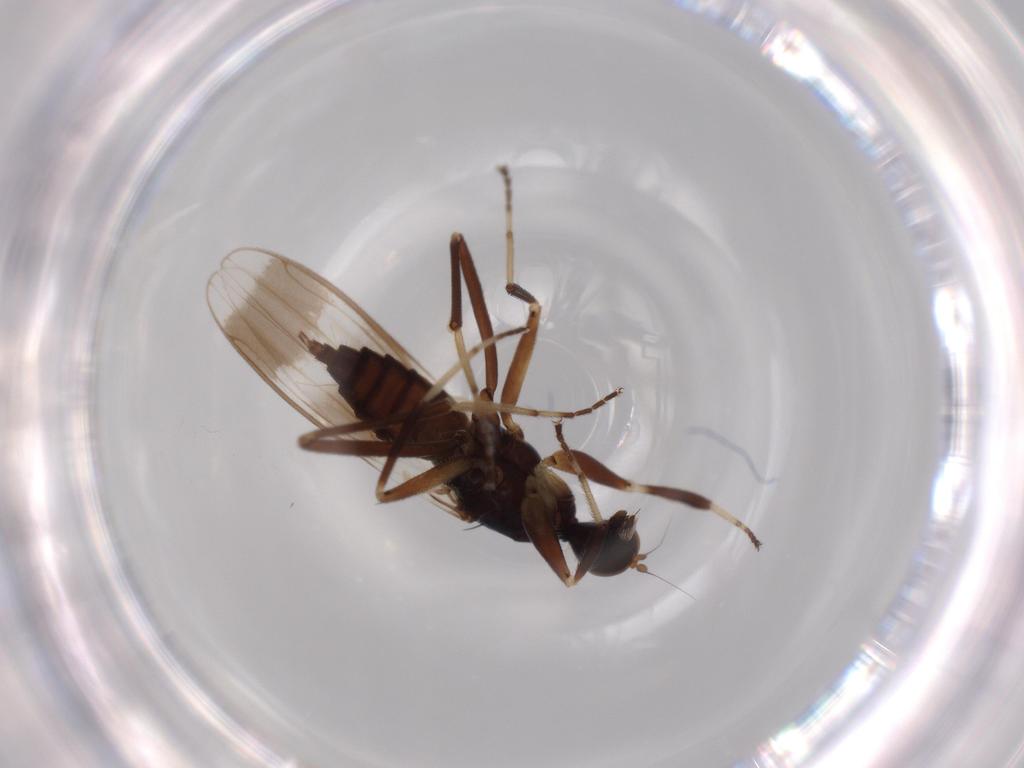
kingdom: Animalia
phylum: Arthropoda
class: Insecta
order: Diptera
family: Hybotidae
